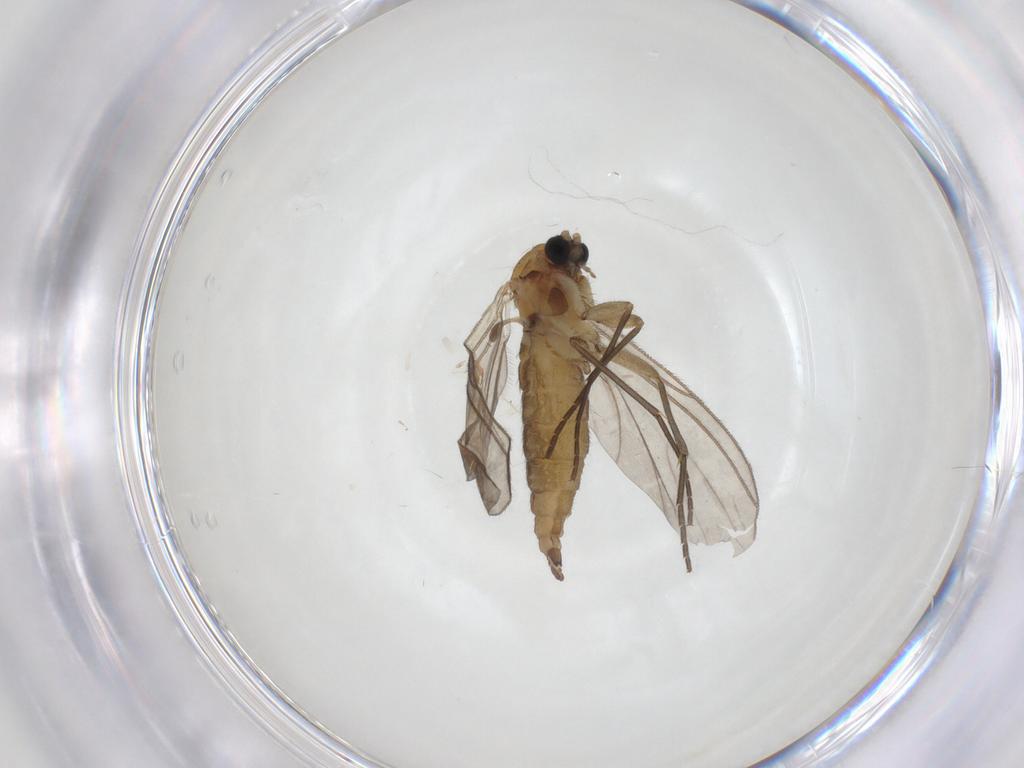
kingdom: Animalia
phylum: Arthropoda
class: Insecta
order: Diptera
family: Sciaridae
